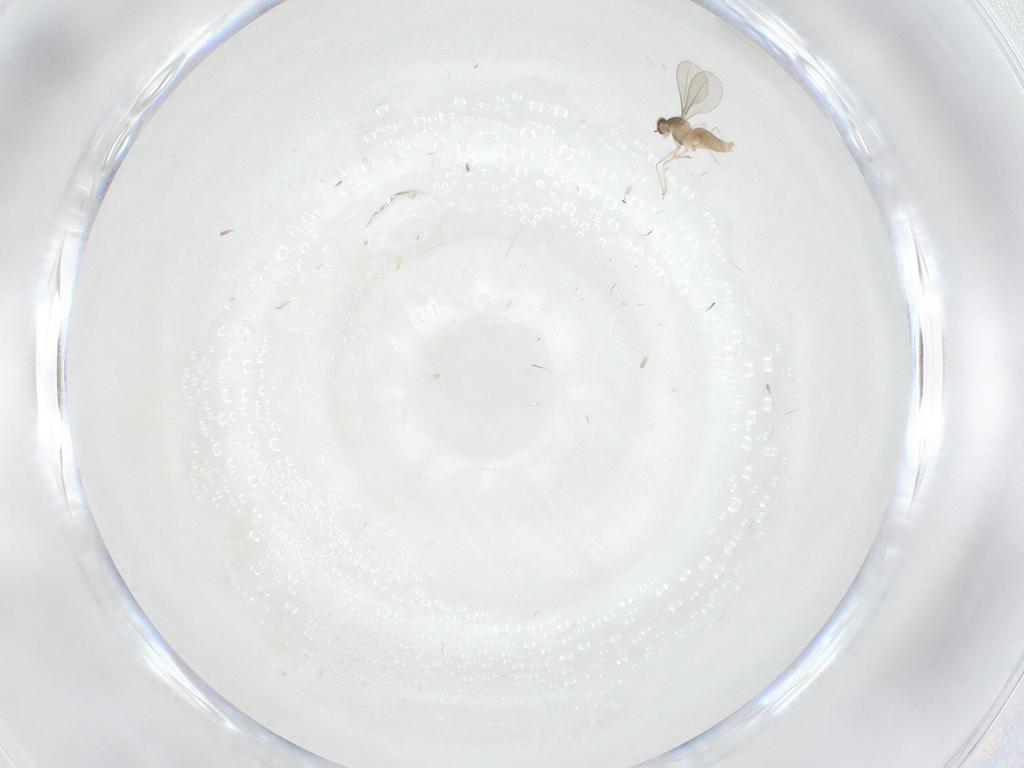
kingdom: Animalia
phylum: Arthropoda
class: Insecta
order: Diptera
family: Cecidomyiidae
